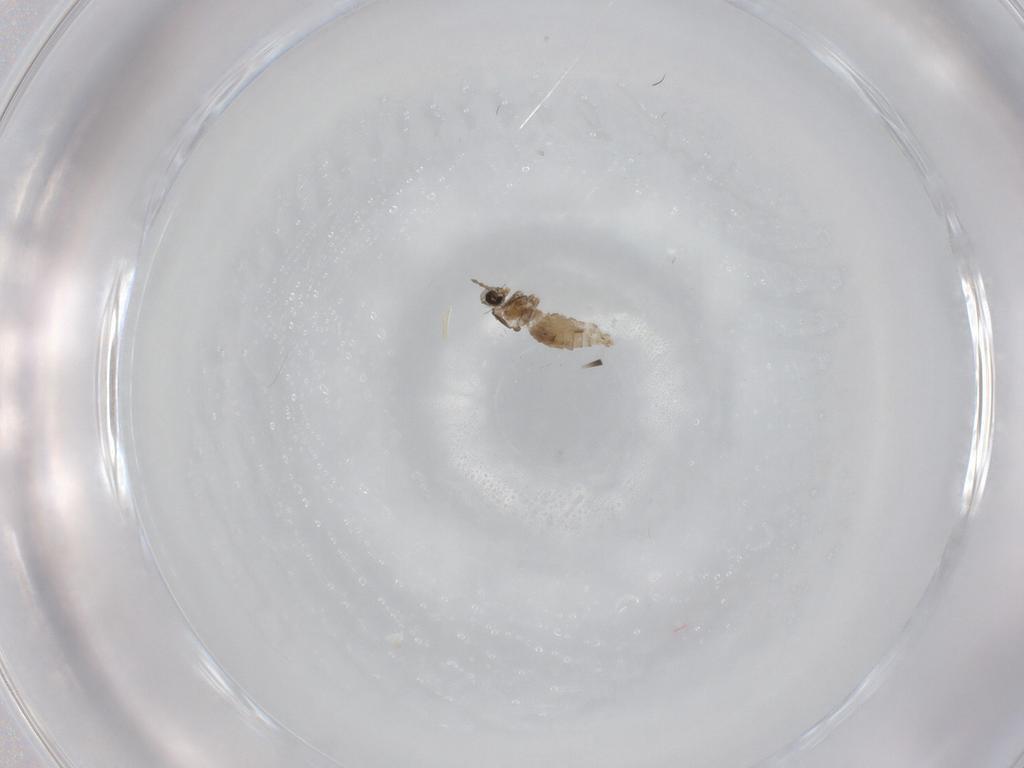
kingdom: Animalia
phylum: Arthropoda
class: Insecta
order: Diptera
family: Cecidomyiidae
